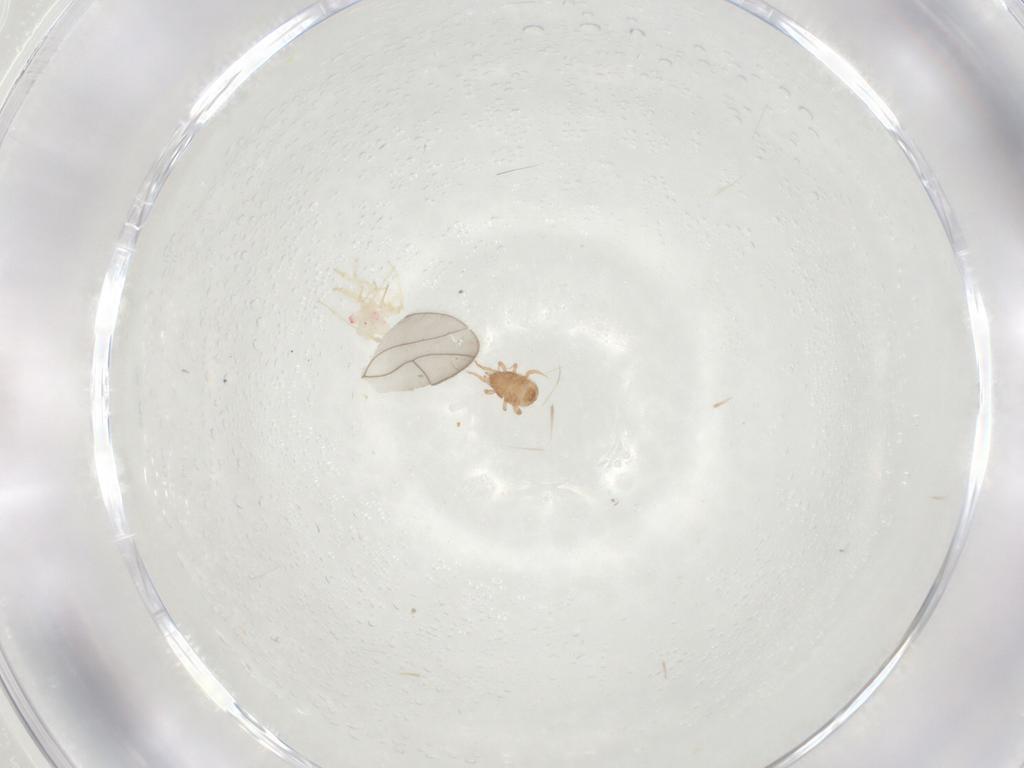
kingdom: Animalia
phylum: Arthropoda
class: Arachnida
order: Mesostigmata
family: Blattisociidae
